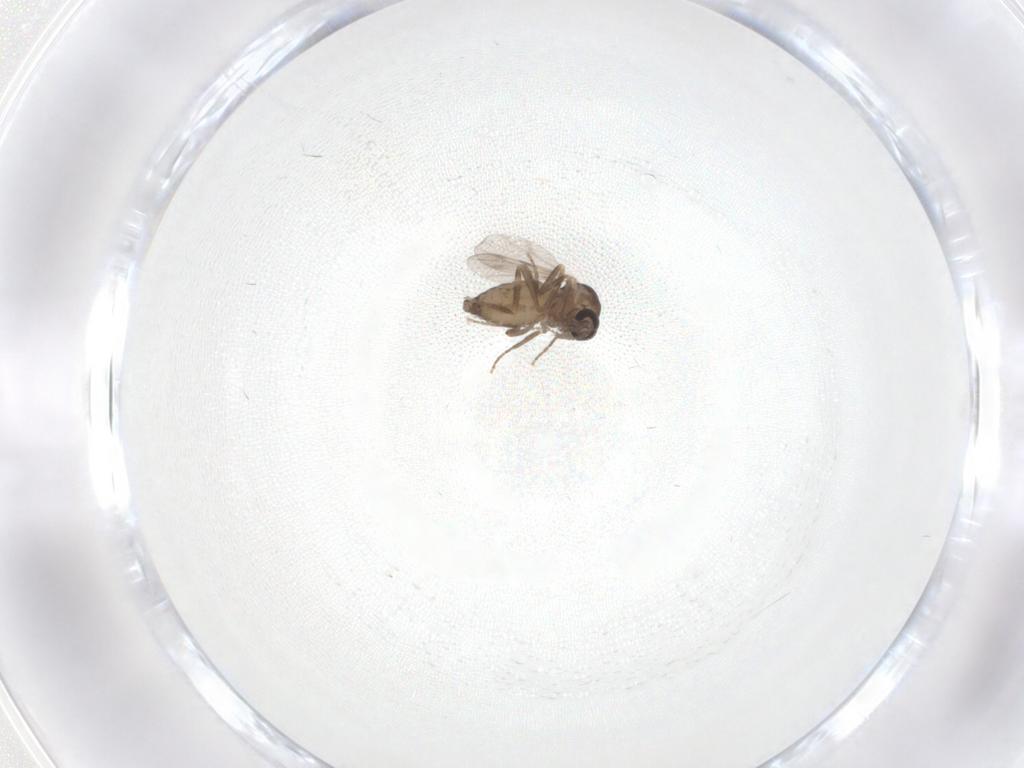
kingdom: Animalia
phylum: Arthropoda
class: Insecta
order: Diptera
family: Ceratopogonidae
